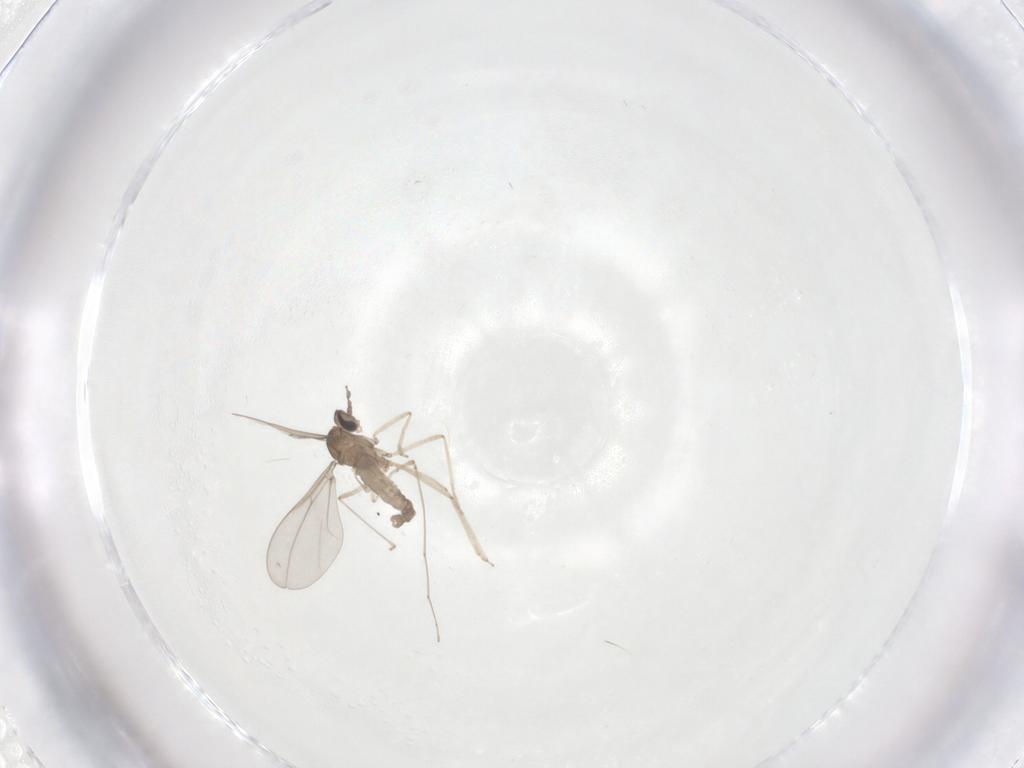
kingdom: Animalia
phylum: Arthropoda
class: Insecta
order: Diptera
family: Cecidomyiidae
